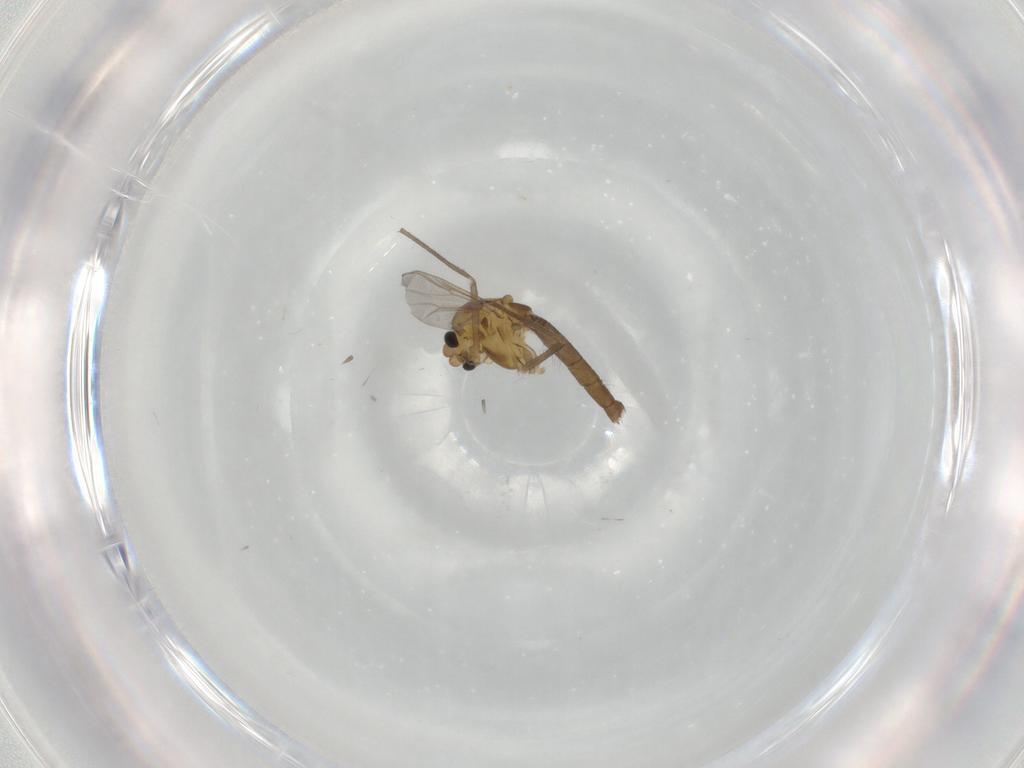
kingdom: Animalia
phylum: Arthropoda
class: Insecta
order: Diptera
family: Chironomidae
